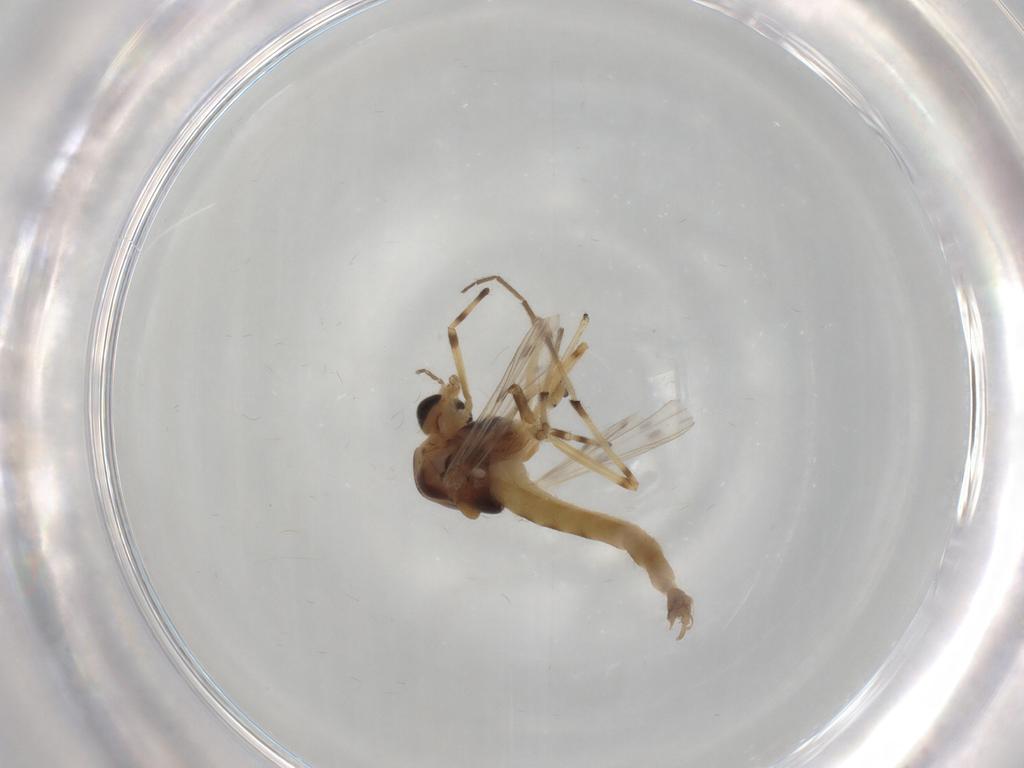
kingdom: Animalia
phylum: Arthropoda
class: Insecta
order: Diptera
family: Chironomidae
